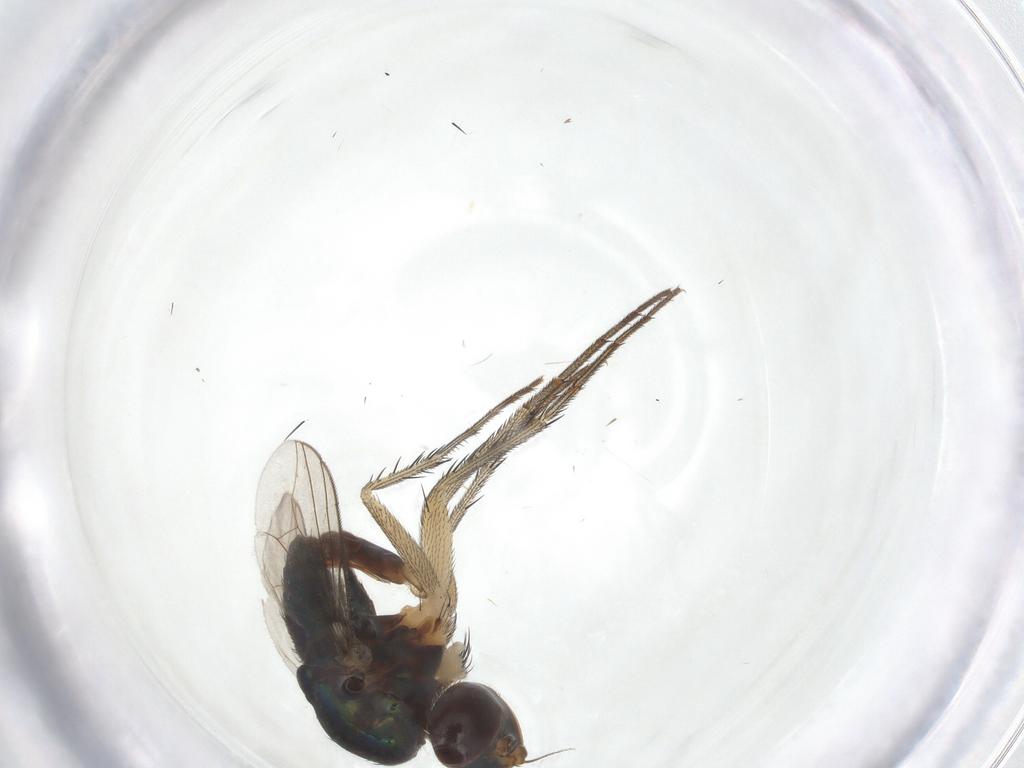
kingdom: Animalia
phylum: Arthropoda
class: Insecta
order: Diptera
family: Dolichopodidae
